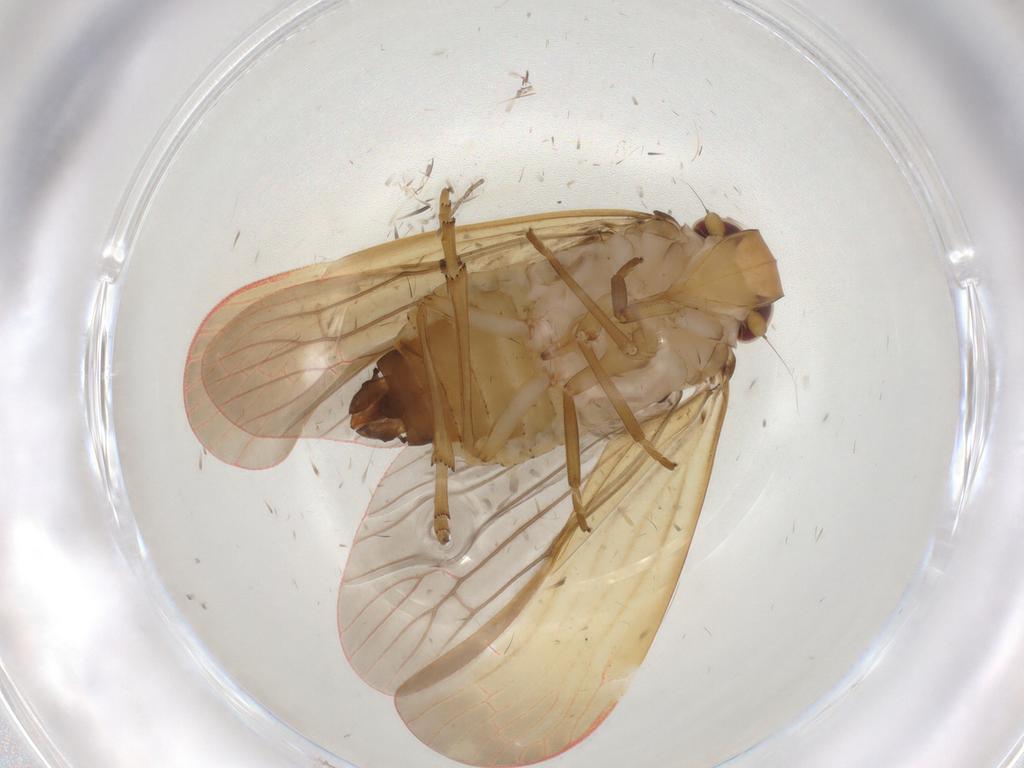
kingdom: Animalia
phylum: Arthropoda
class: Insecta
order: Hemiptera
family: Achilidae
